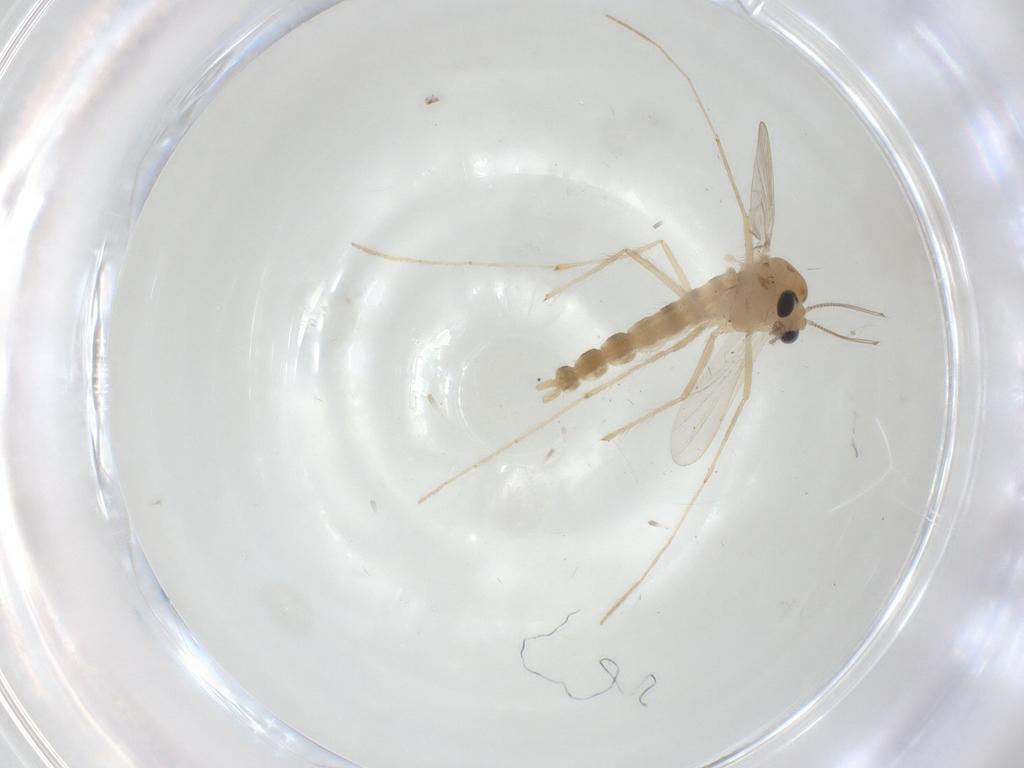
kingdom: Animalia
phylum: Arthropoda
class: Insecta
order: Diptera
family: Chironomidae
